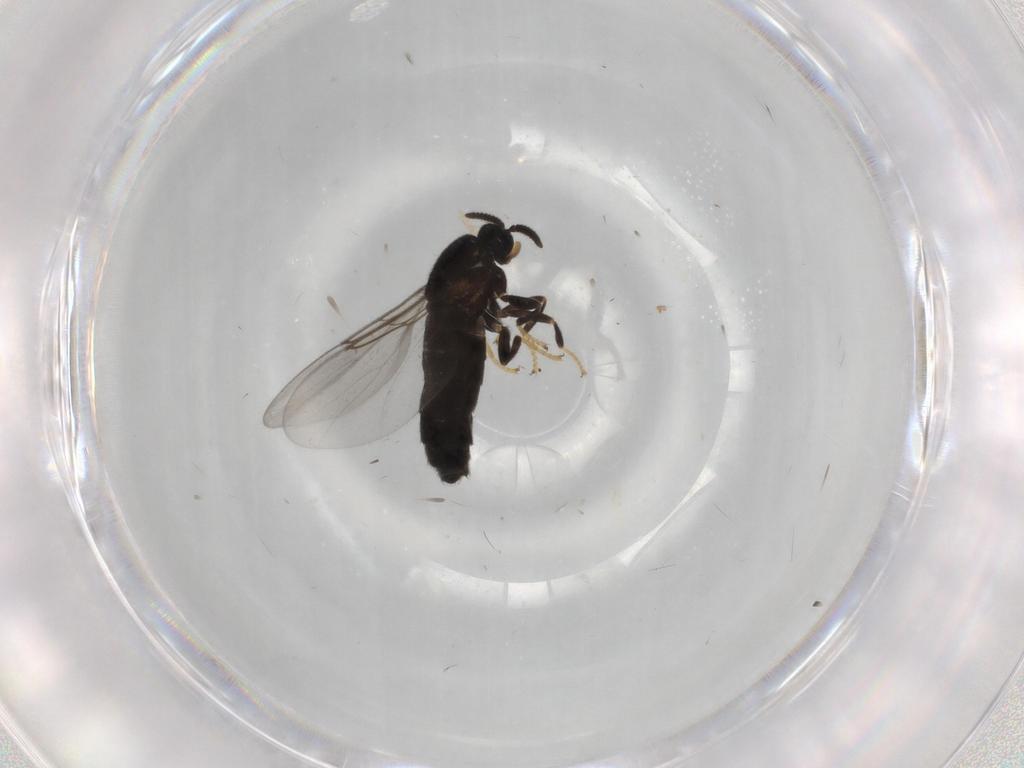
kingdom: Animalia
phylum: Arthropoda
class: Insecta
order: Diptera
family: Scatopsidae
